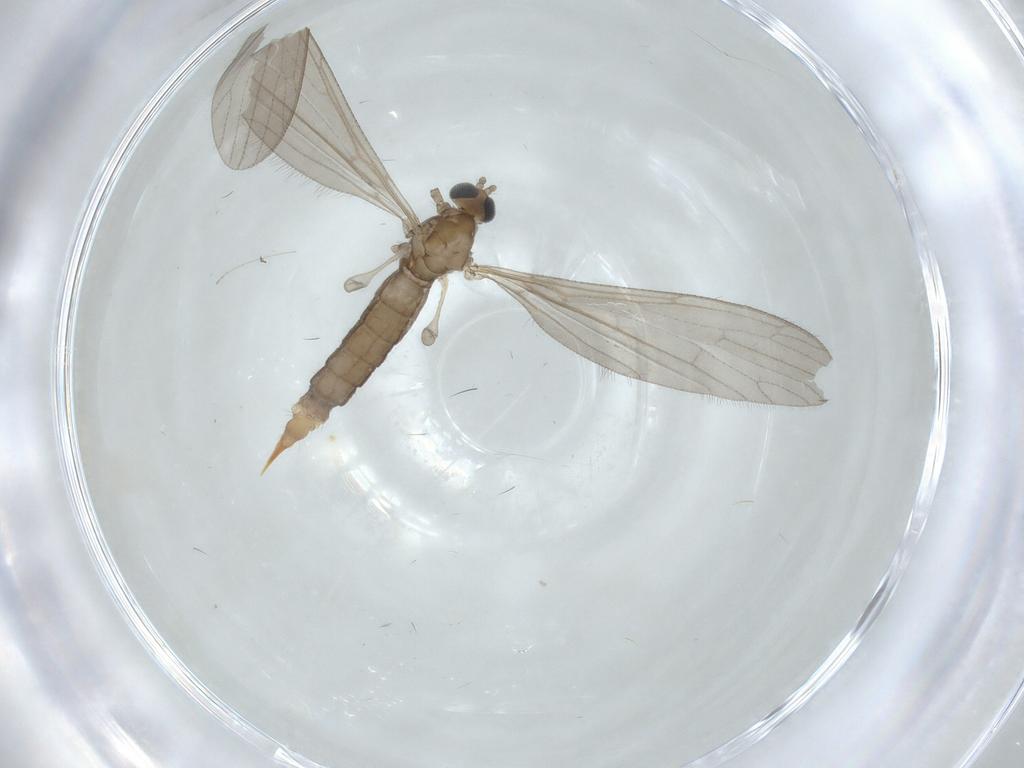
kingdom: Animalia
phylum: Arthropoda
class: Insecta
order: Diptera
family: Limoniidae
